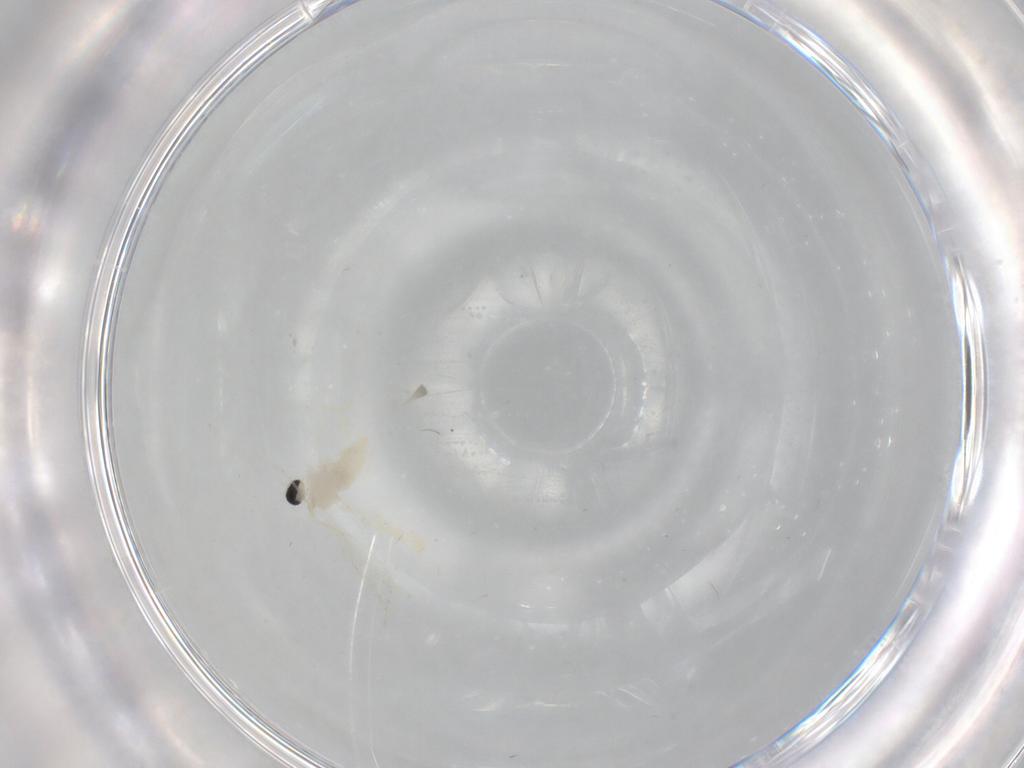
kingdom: Animalia
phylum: Arthropoda
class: Insecta
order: Diptera
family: Cecidomyiidae
